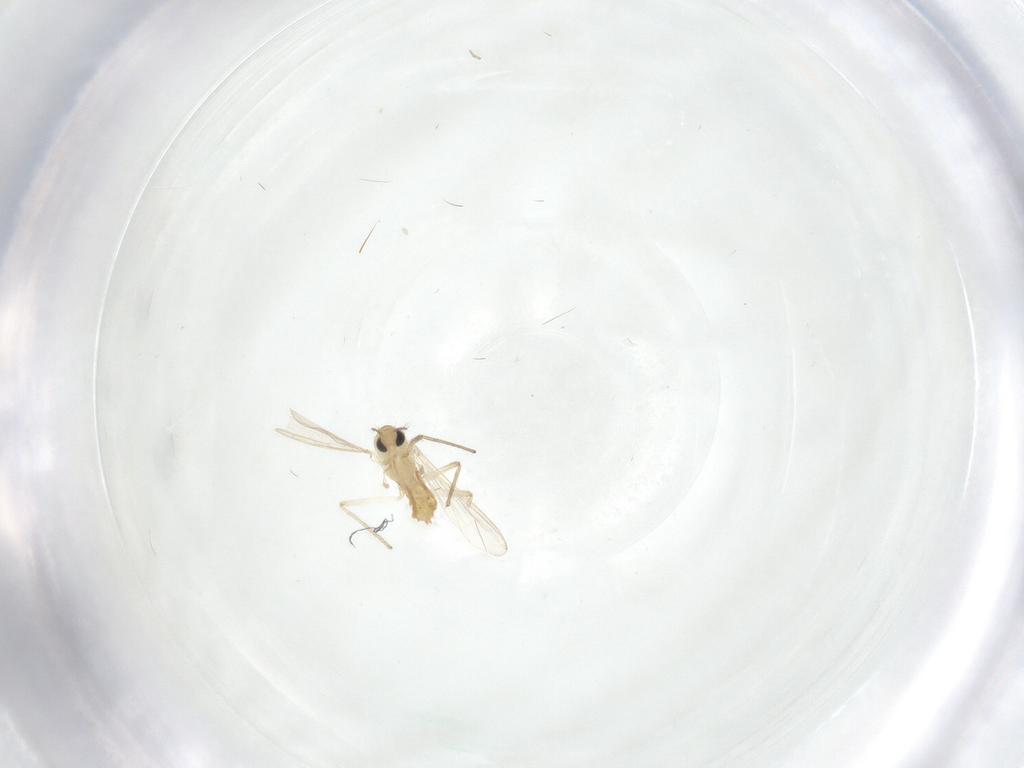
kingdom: Animalia
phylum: Arthropoda
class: Insecta
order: Diptera
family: Chironomidae
